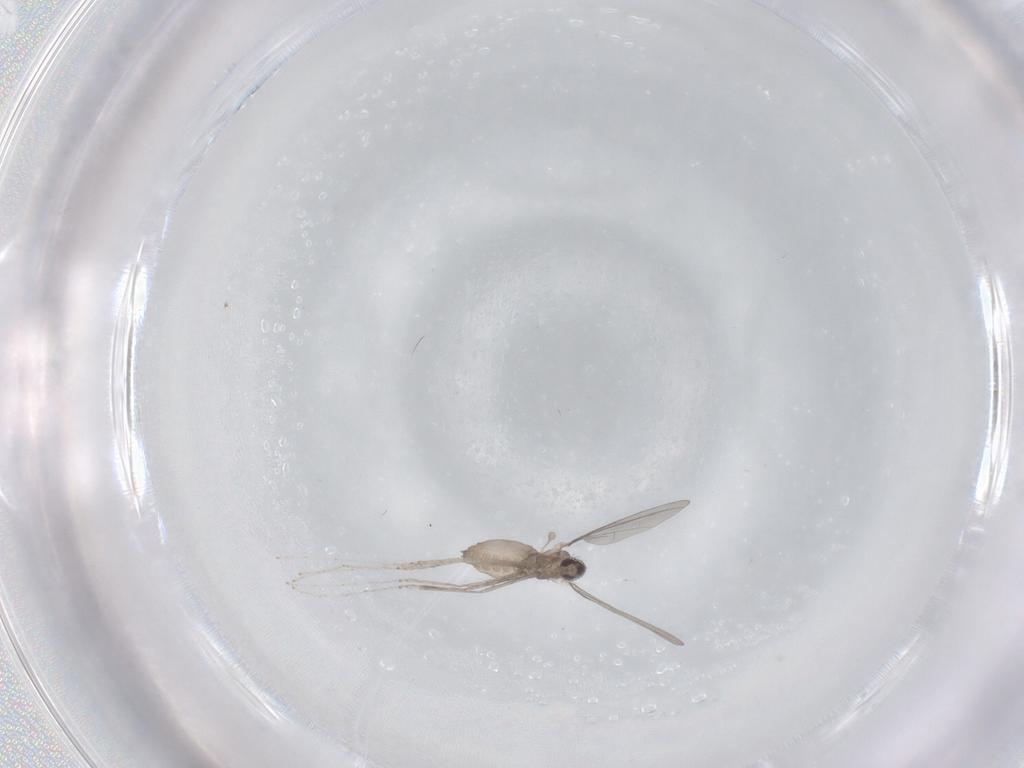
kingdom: Animalia
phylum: Arthropoda
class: Insecta
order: Diptera
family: Cecidomyiidae
